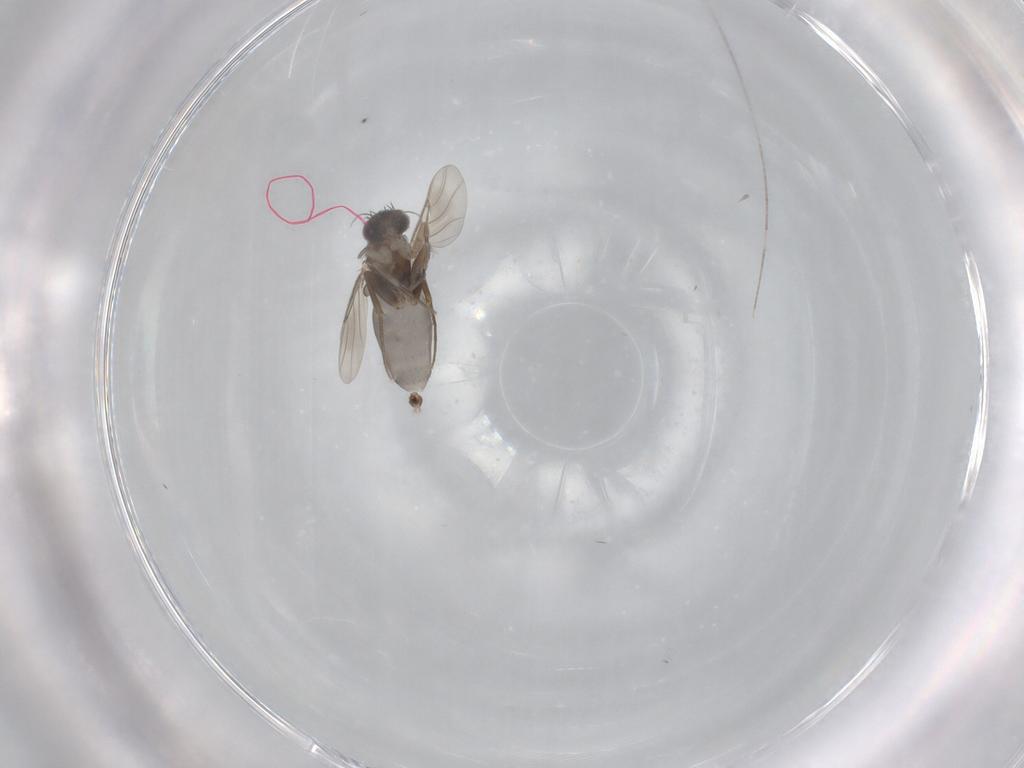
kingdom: Animalia
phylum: Arthropoda
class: Insecta
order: Diptera
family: Phoridae
